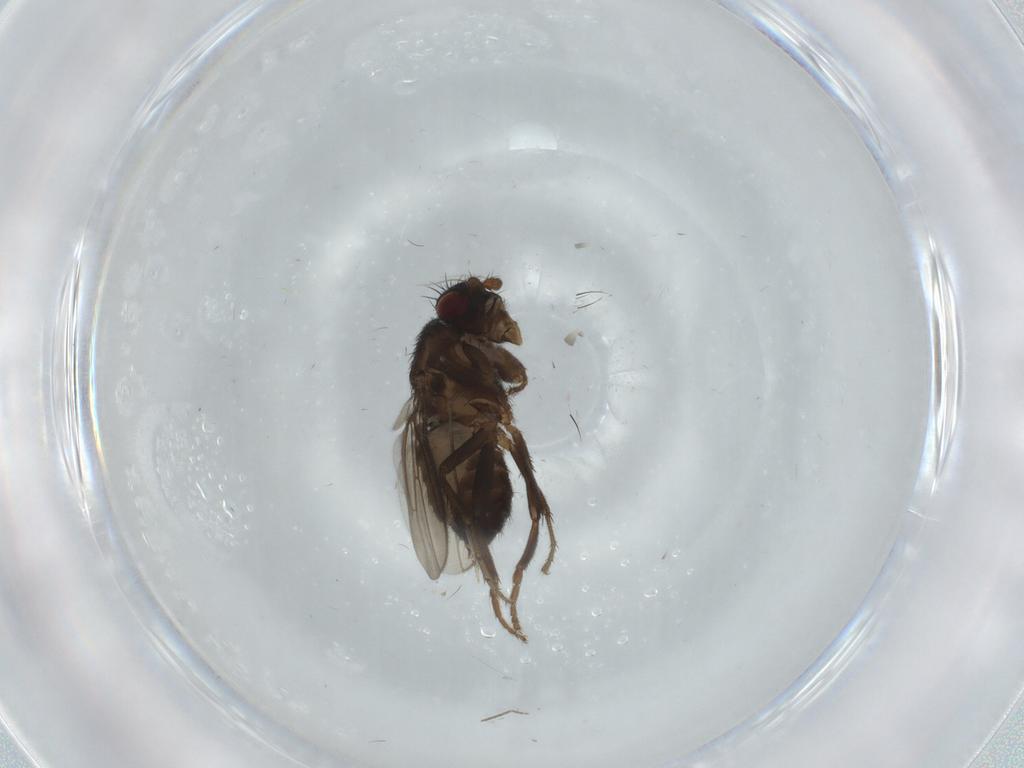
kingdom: Animalia
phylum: Arthropoda
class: Insecta
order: Diptera
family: Sphaeroceridae
